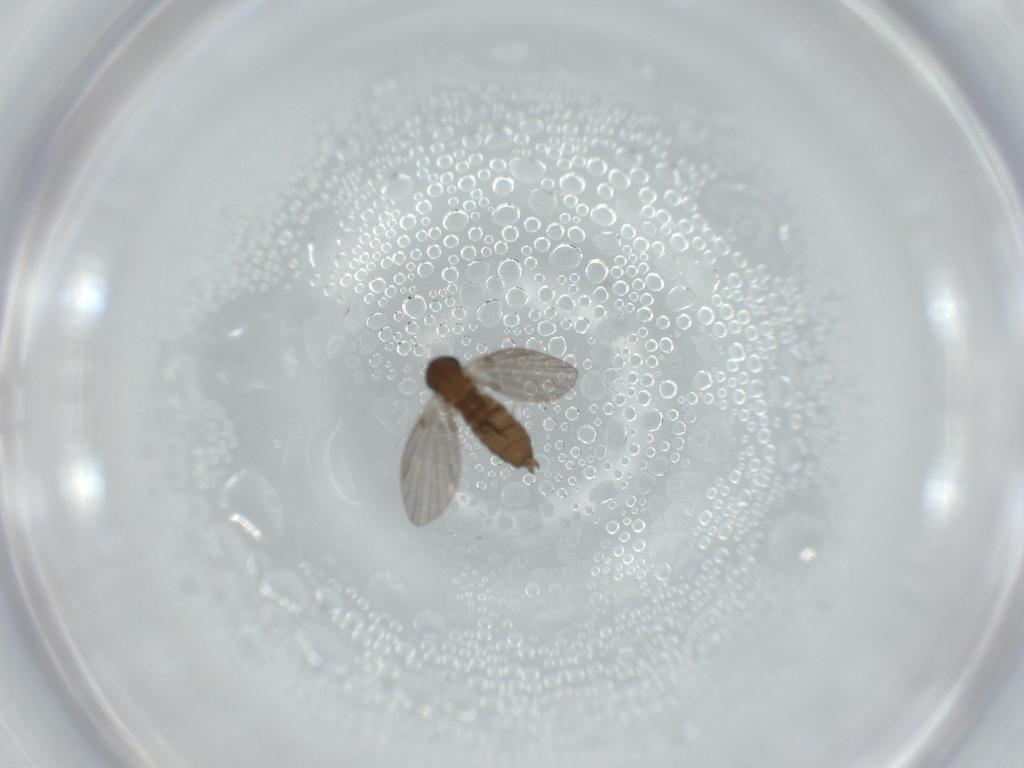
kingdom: Animalia
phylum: Arthropoda
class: Insecta
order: Diptera
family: Psychodidae
